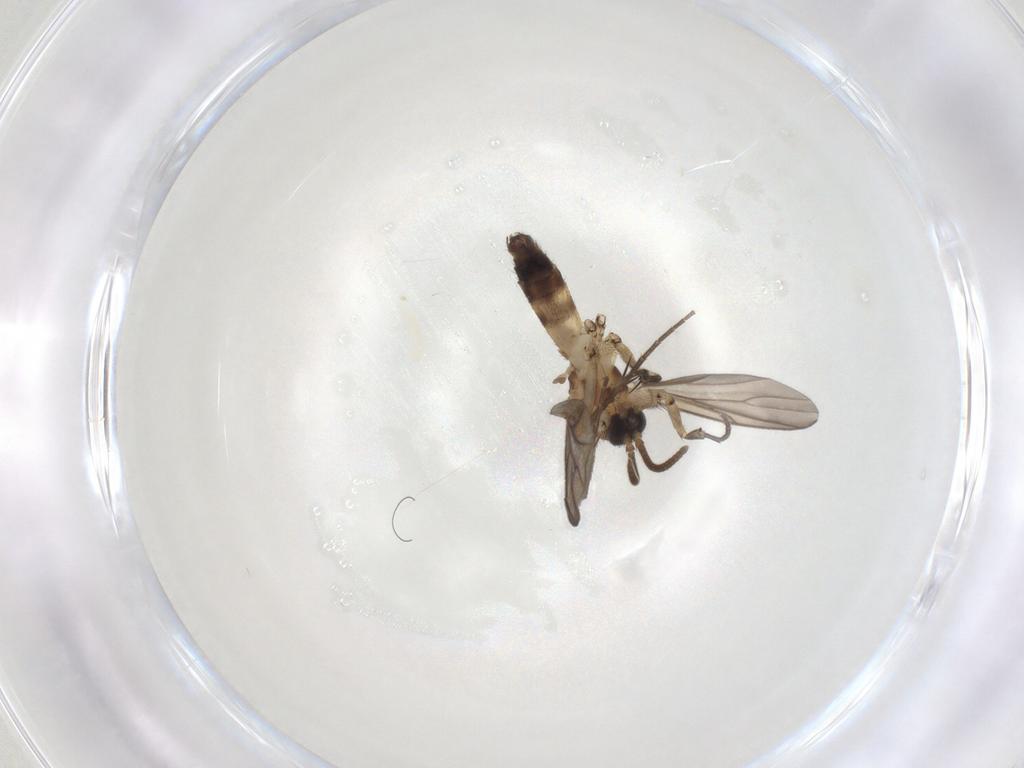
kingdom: Animalia
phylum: Arthropoda
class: Insecta
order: Diptera
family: Mycetophilidae
